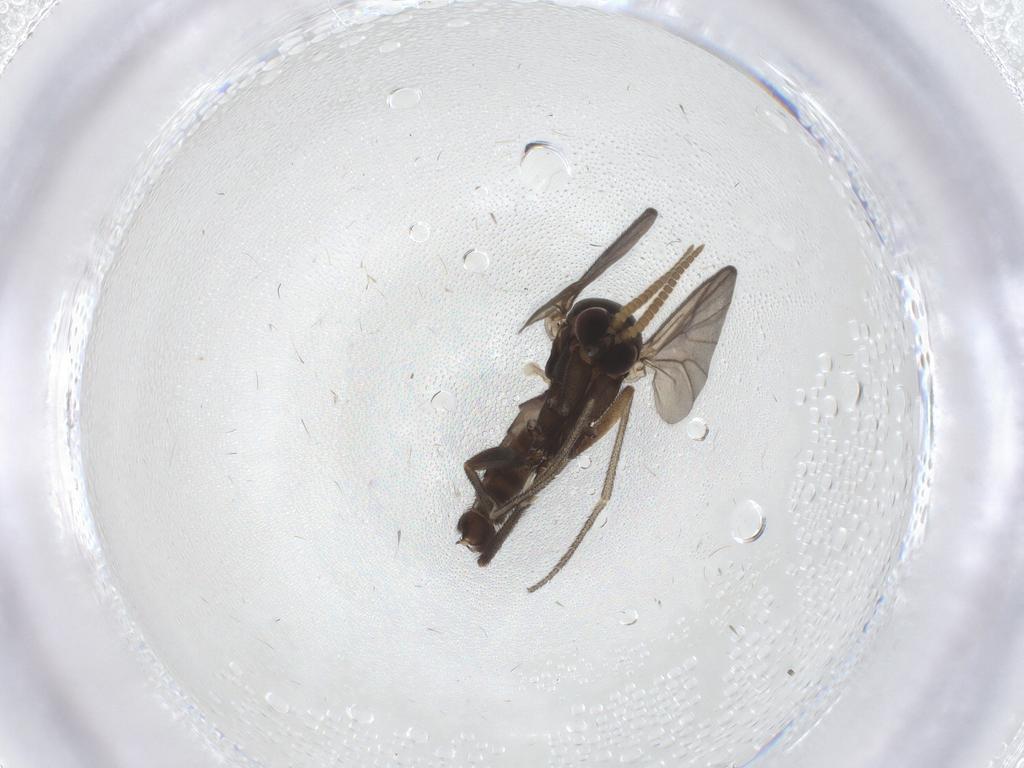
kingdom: Animalia
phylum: Arthropoda
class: Insecta
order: Diptera
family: Mycetophilidae
